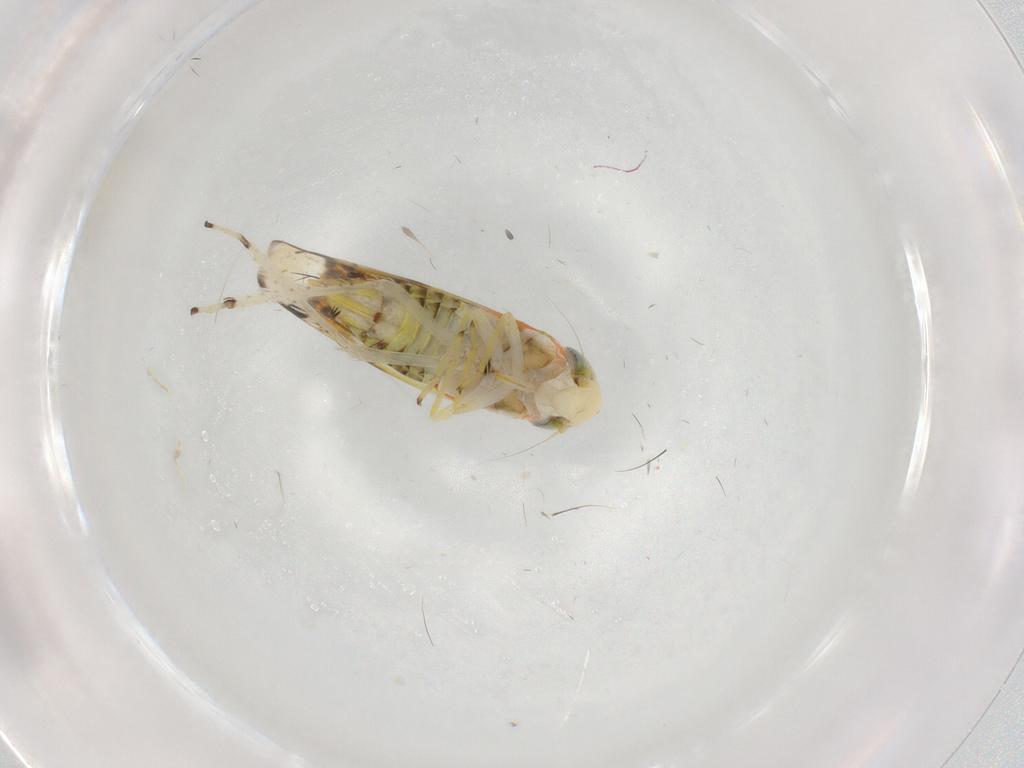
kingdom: Animalia
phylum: Arthropoda
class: Insecta
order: Hemiptera
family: Cicadellidae
